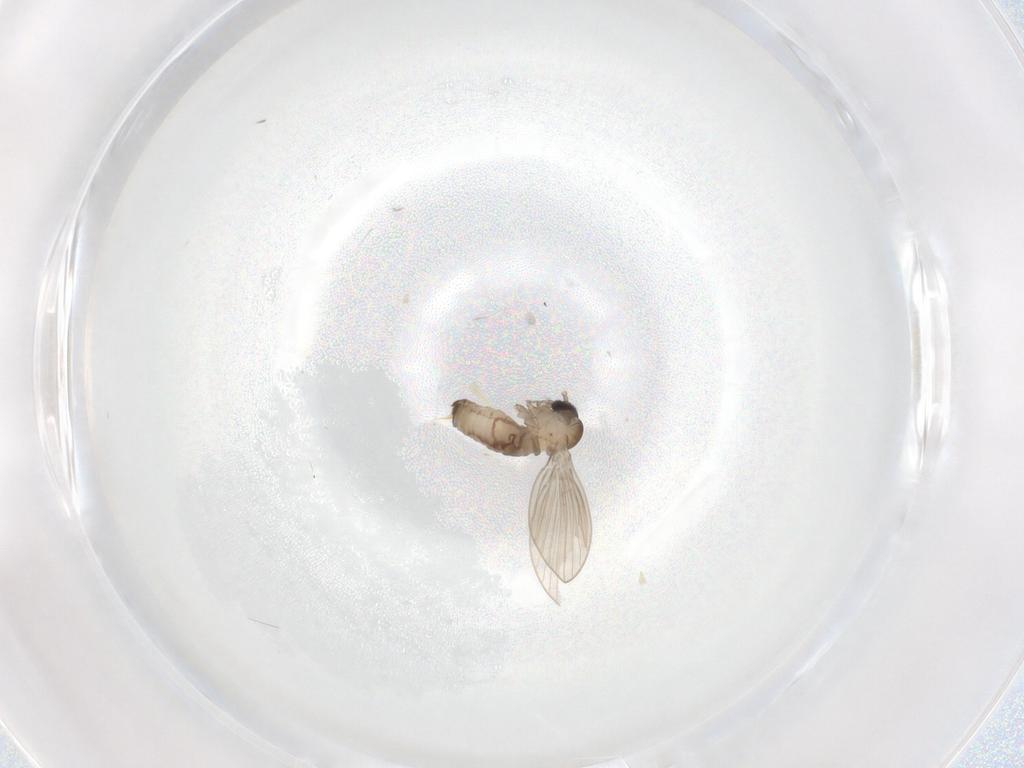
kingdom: Animalia
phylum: Arthropoda
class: Insecta
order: Diptera
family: Psychodidae
